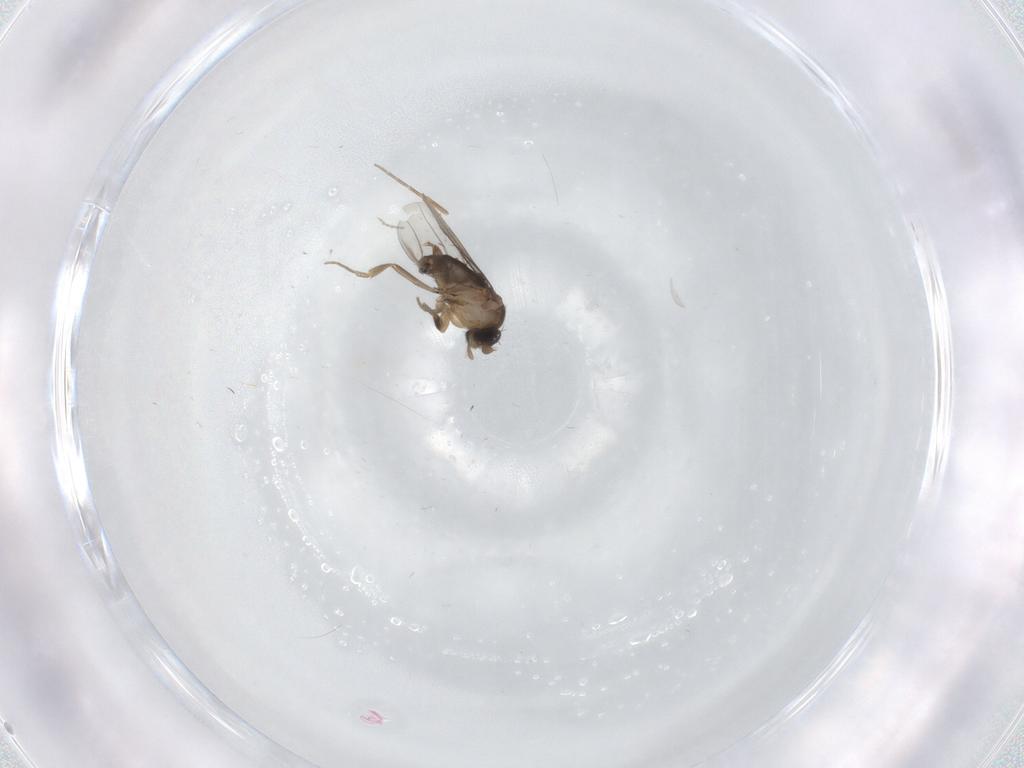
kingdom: Animalia
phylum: Arthropoda
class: Insecta
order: Diptera
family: Phoridae
